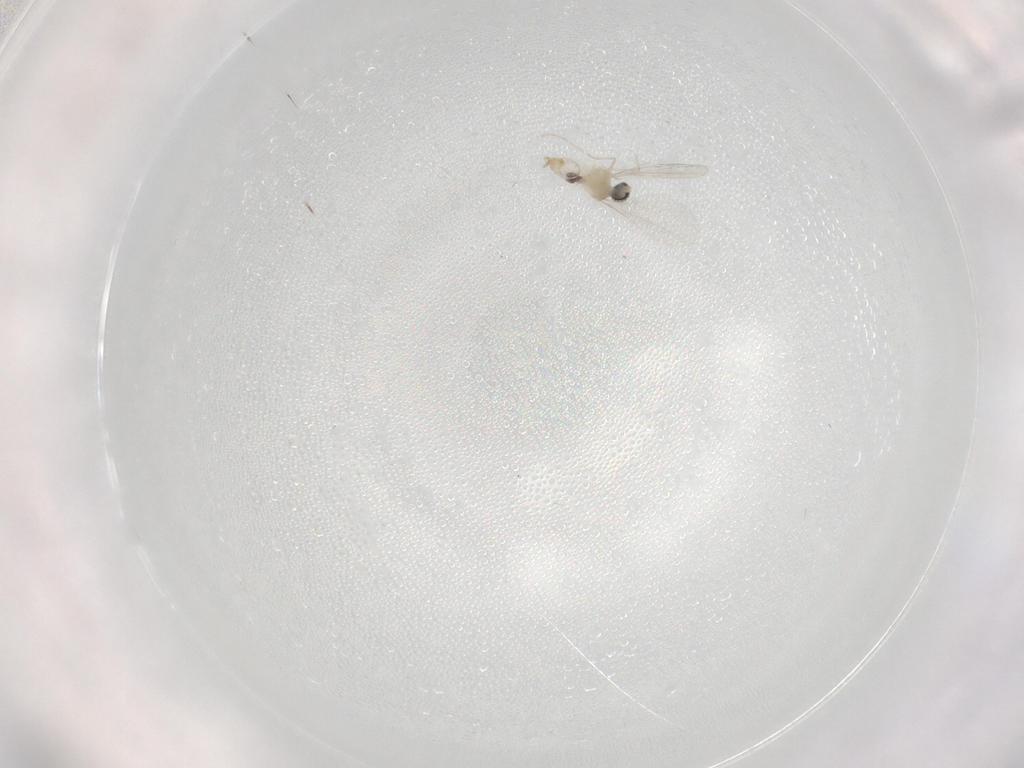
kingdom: Animalia
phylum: Arthropoda
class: Insecta
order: Diptera
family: Cecidomyiidae
